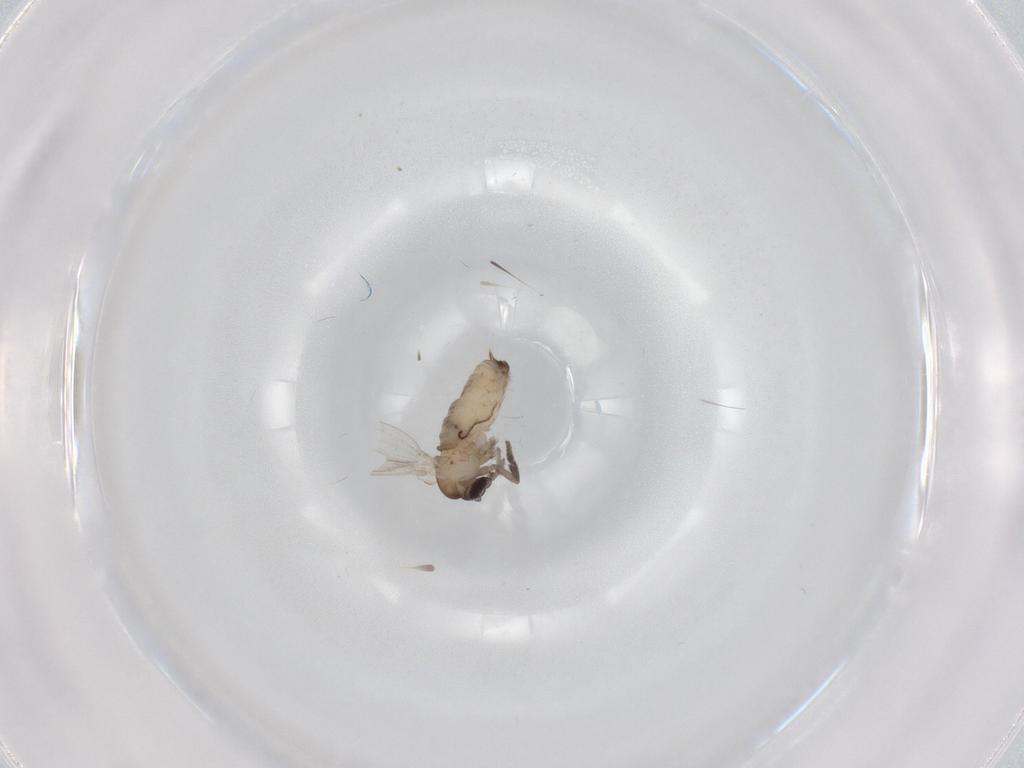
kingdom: Animalia
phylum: Arthropoda
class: Insecta
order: Diptera
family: Psychodidae
